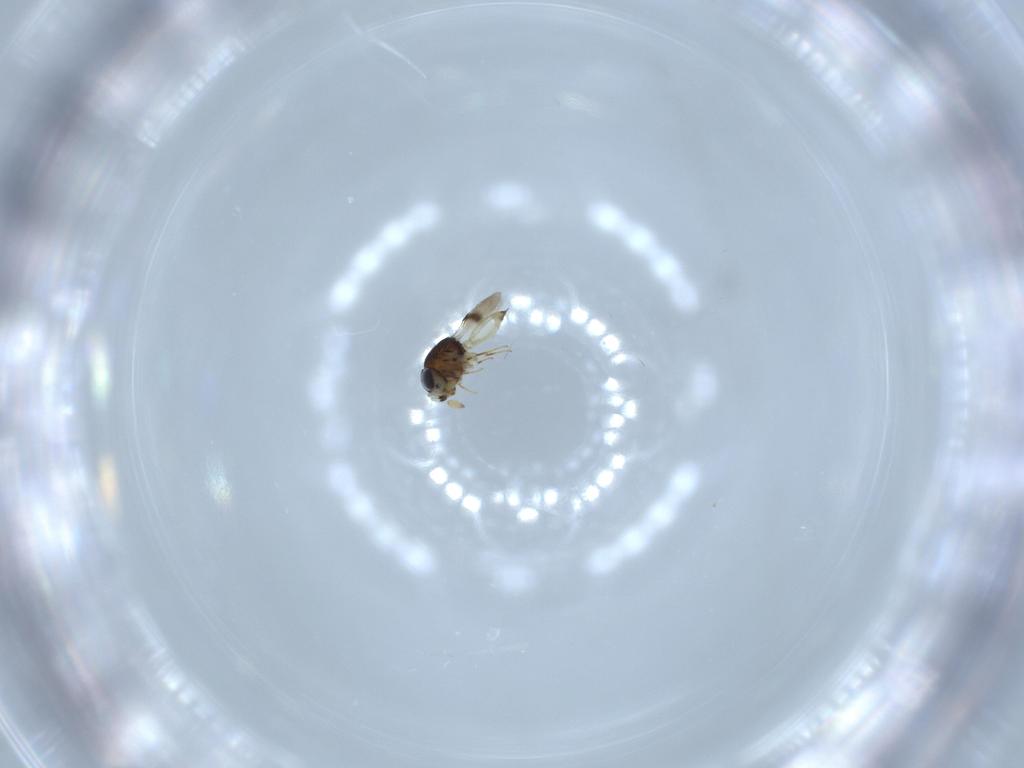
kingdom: Animalia
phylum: Arthropoda
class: Insecta
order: Hymenoptera
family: Scelionidae
